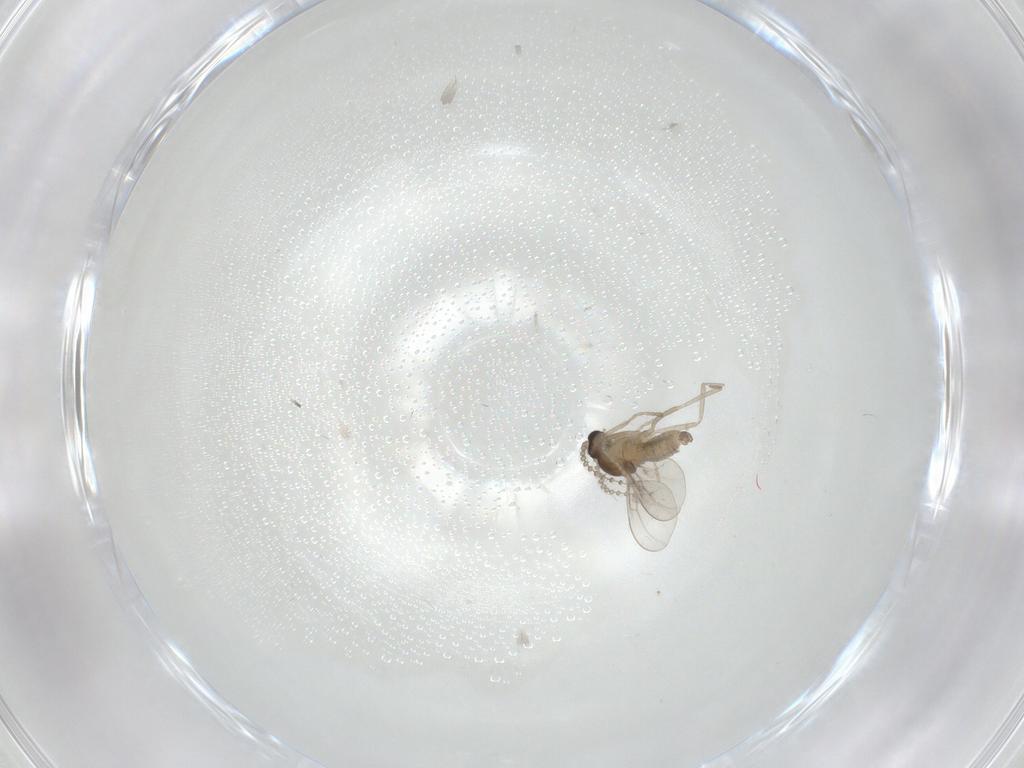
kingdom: Animalia
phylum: Arthropoda
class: Insecta
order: Diptera
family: Cecidomyiidae
